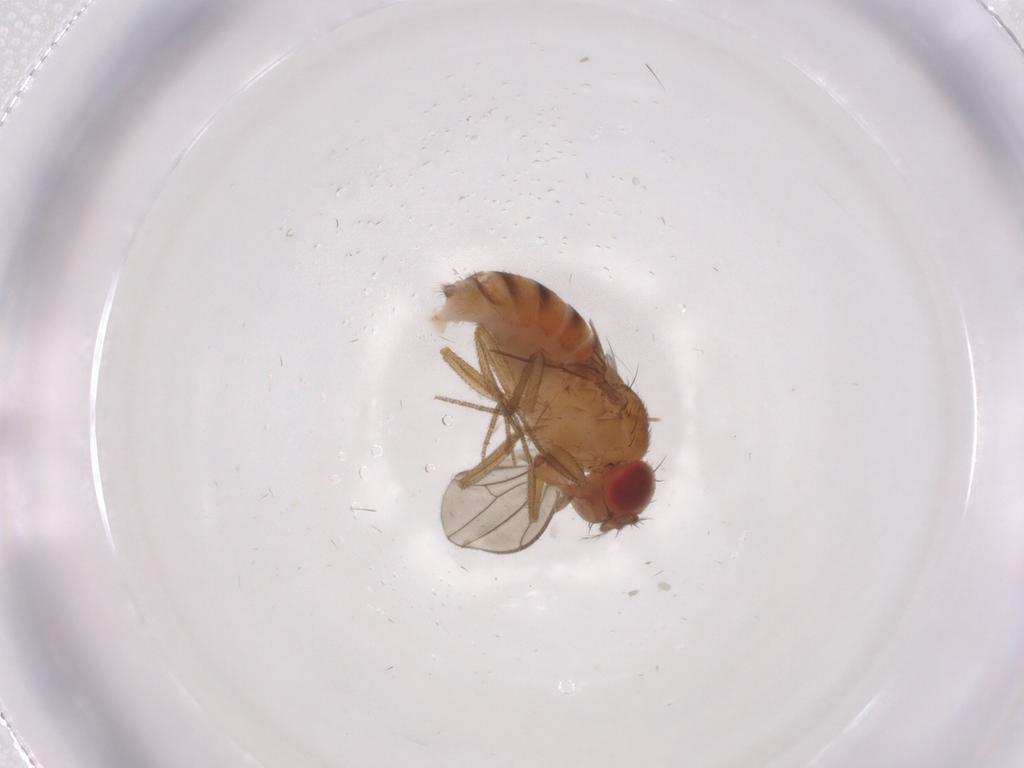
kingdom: Animalia
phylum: Arthropoda
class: Insecta
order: Diptera
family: Drosophilidae
